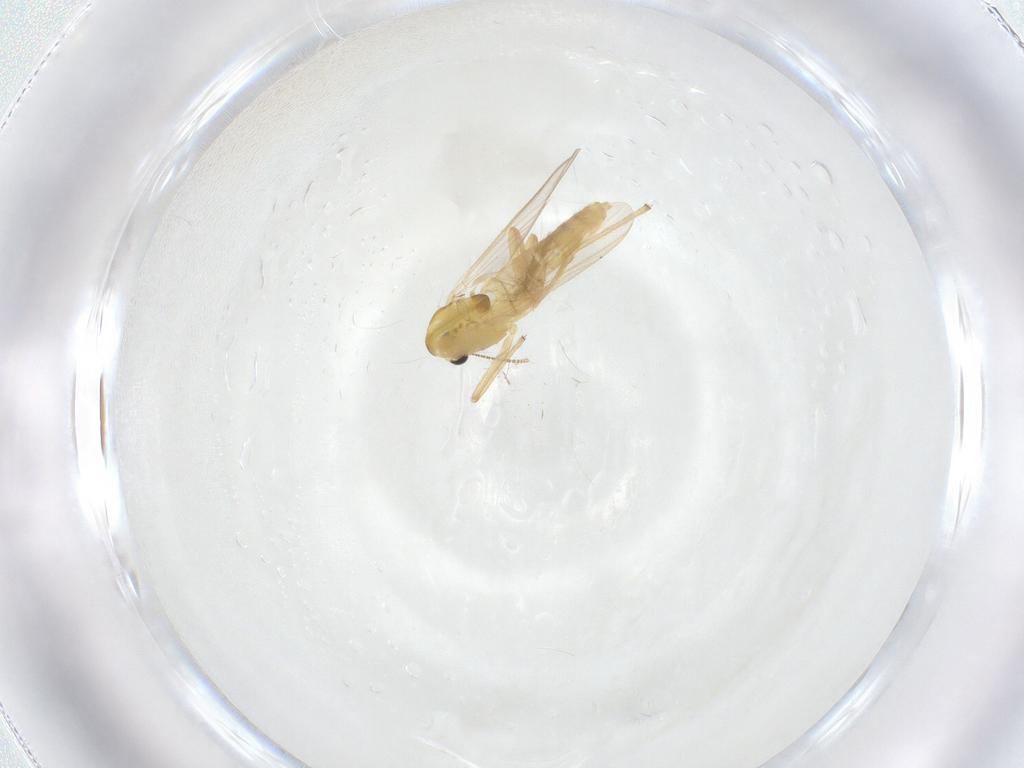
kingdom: Animalia
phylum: Arthropoda
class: Insecta
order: Diptera
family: Chironomidae
